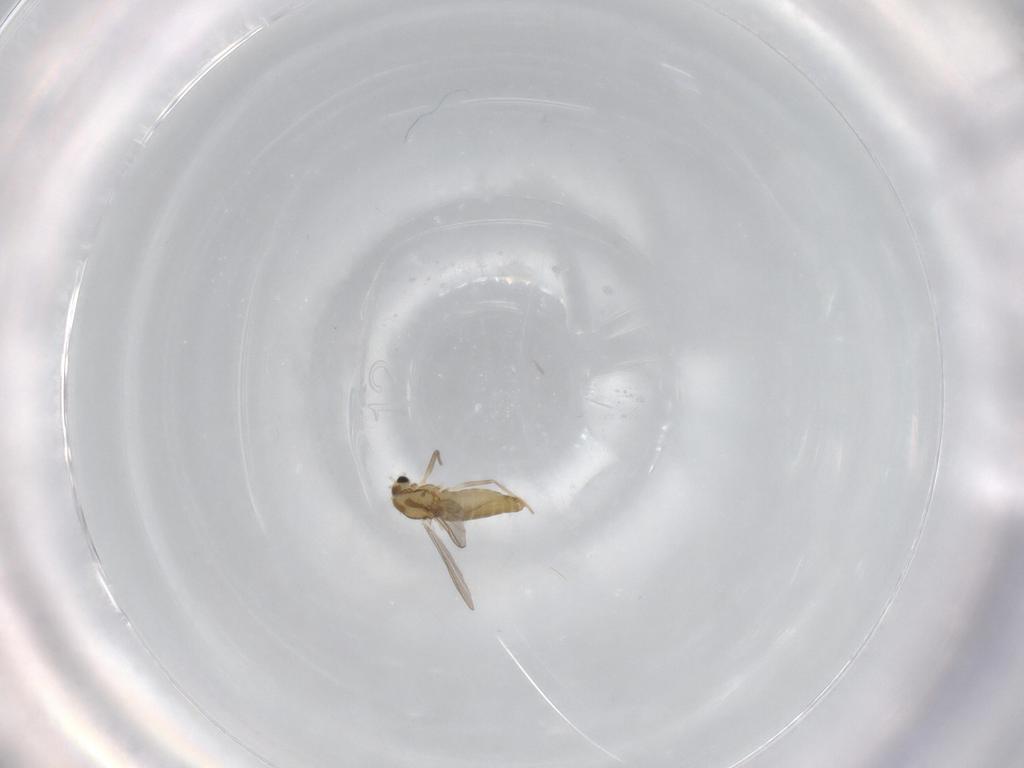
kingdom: Animalia
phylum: Arthropoda
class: Insecta
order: Diptera
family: Chironomidae
